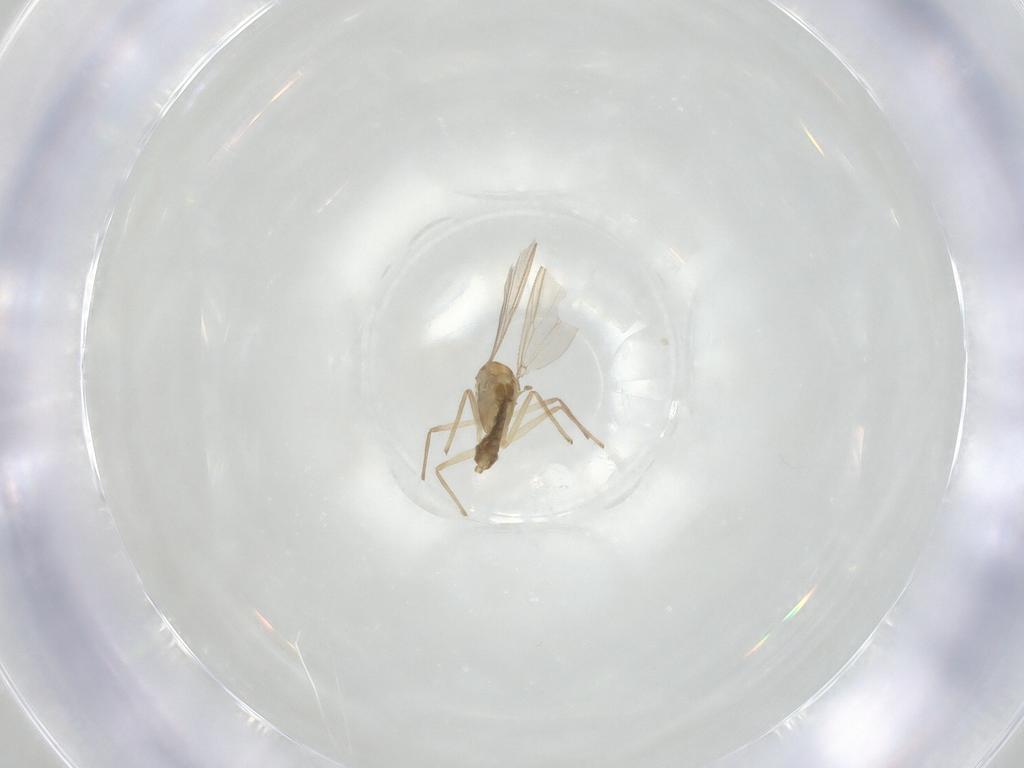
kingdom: Animalia
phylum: Arthropoda
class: Insecta
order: Diptera
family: Chironomidae
